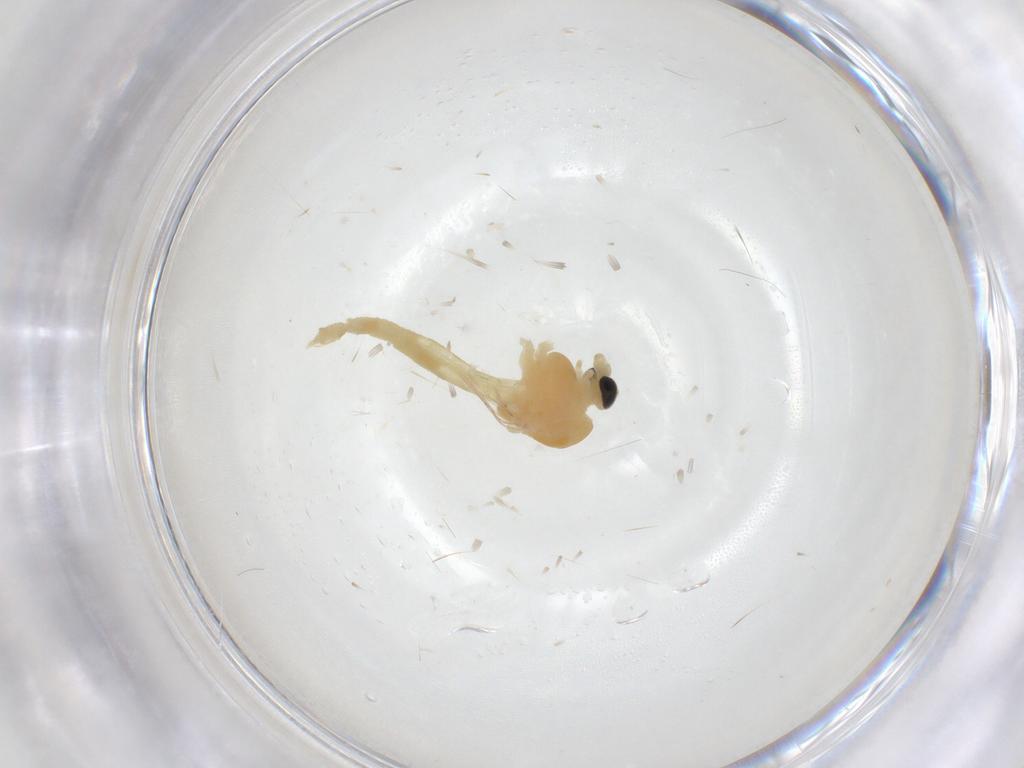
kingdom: Animalia
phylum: Arthropoda
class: Insecta
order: Diptera
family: Chironomidae
